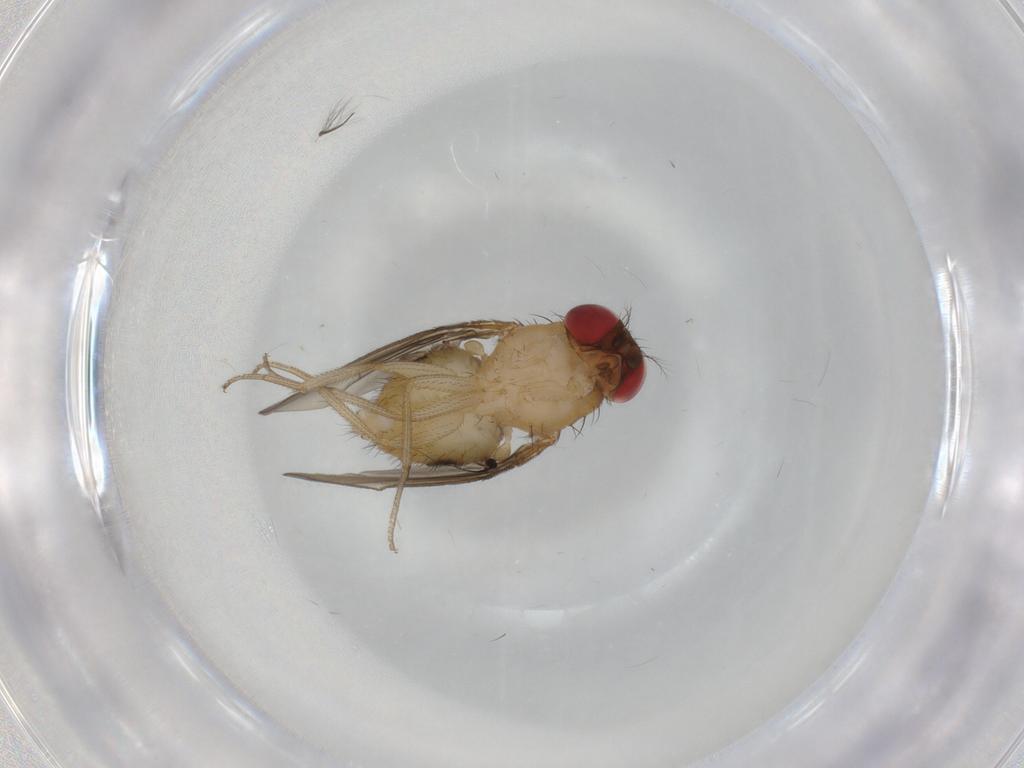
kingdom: Animalia
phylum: Arthropoda
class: Insecta
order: Diptera
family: Drosophilidae
